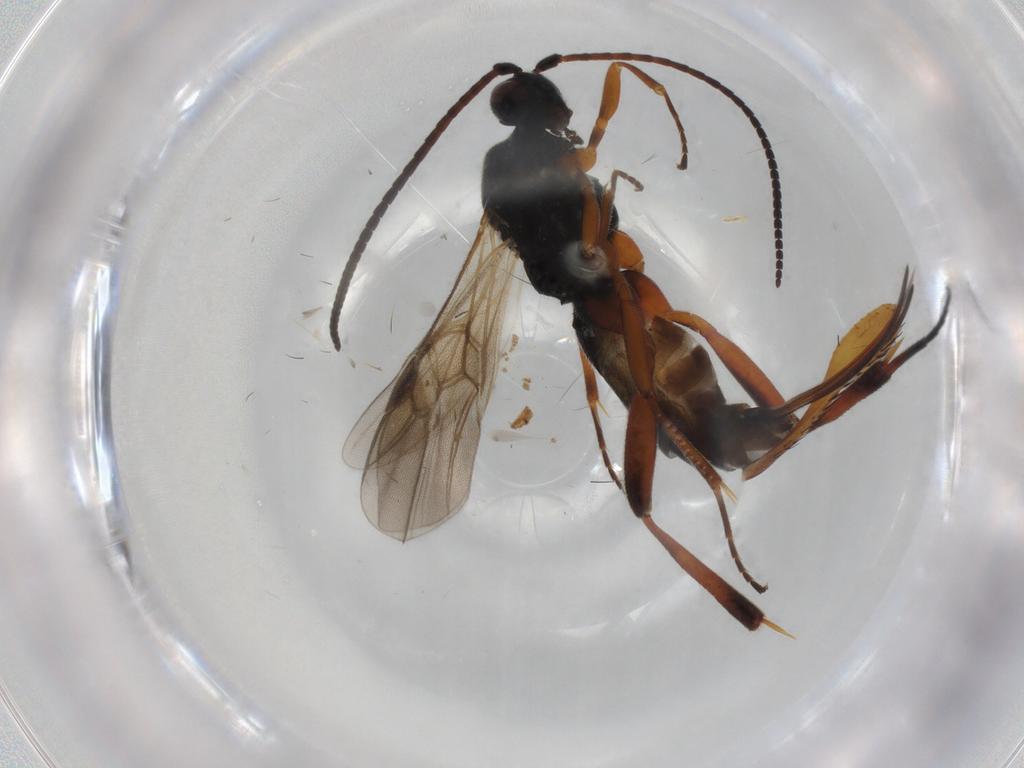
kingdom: Animalia
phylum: Arthropoda
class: Insecta
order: Hymenoptera
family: Braconidae
